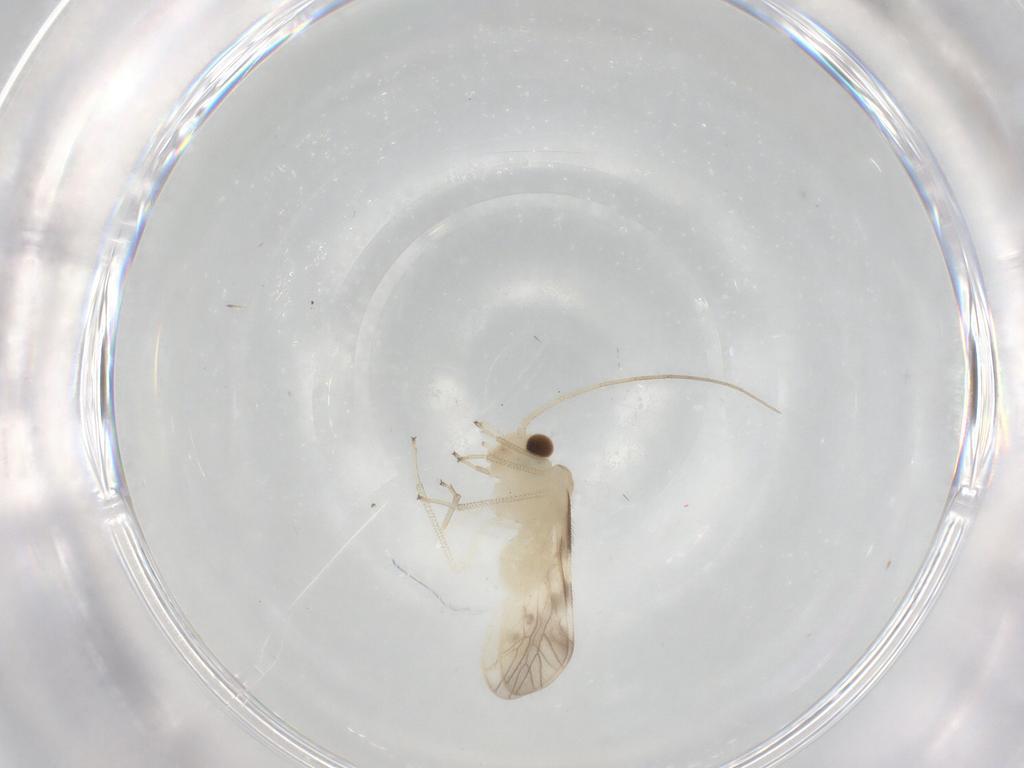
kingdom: Animalia
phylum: Arthropoda
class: Insecta
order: Psocodea
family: Caeciliusidae
